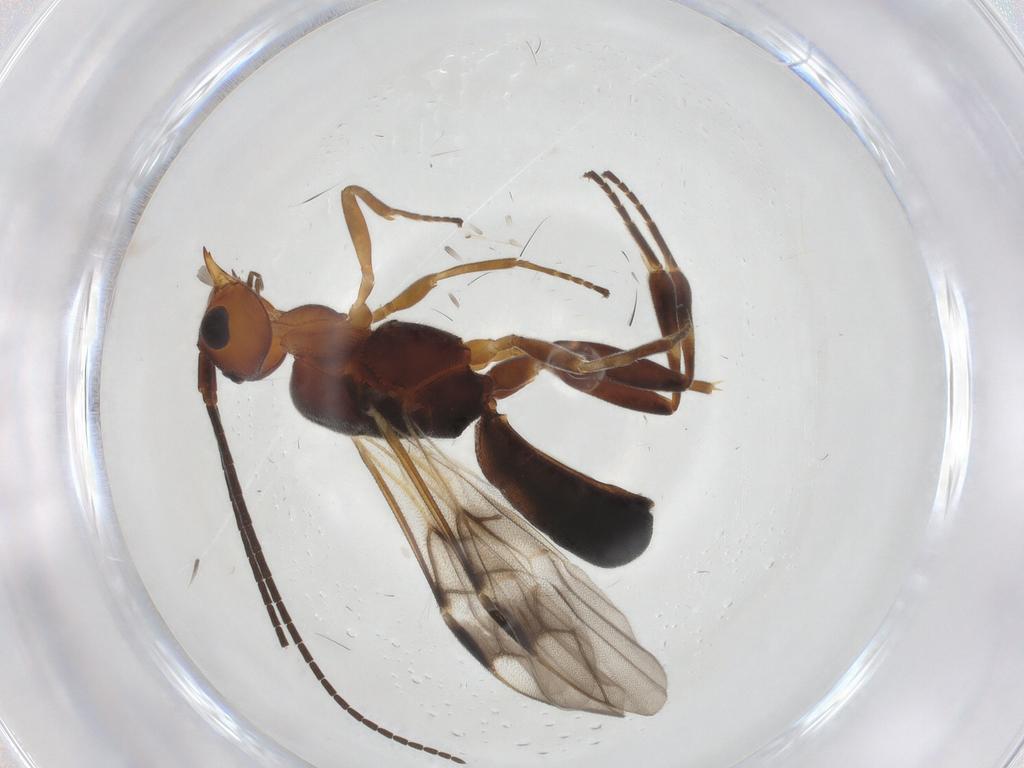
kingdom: Animalia
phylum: Arthropoda
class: Insecta
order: Hymenoptera
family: Braconidae
